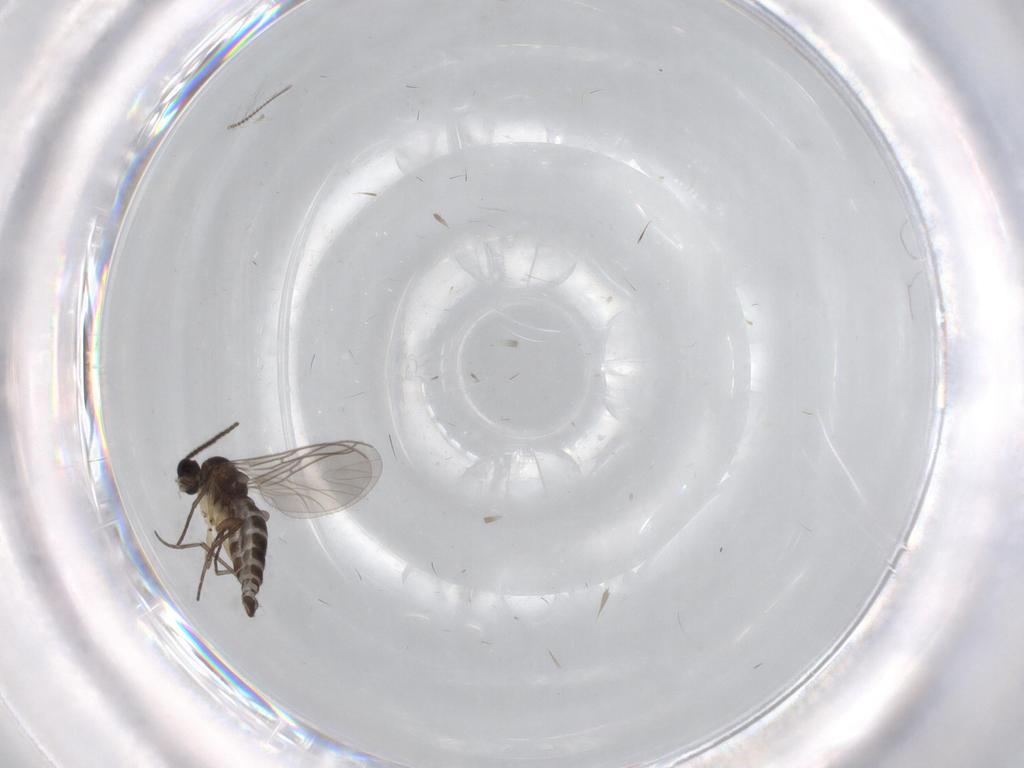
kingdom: Animalia
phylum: Arthropoda
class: Insecta
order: Diptera
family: Sciaridae
